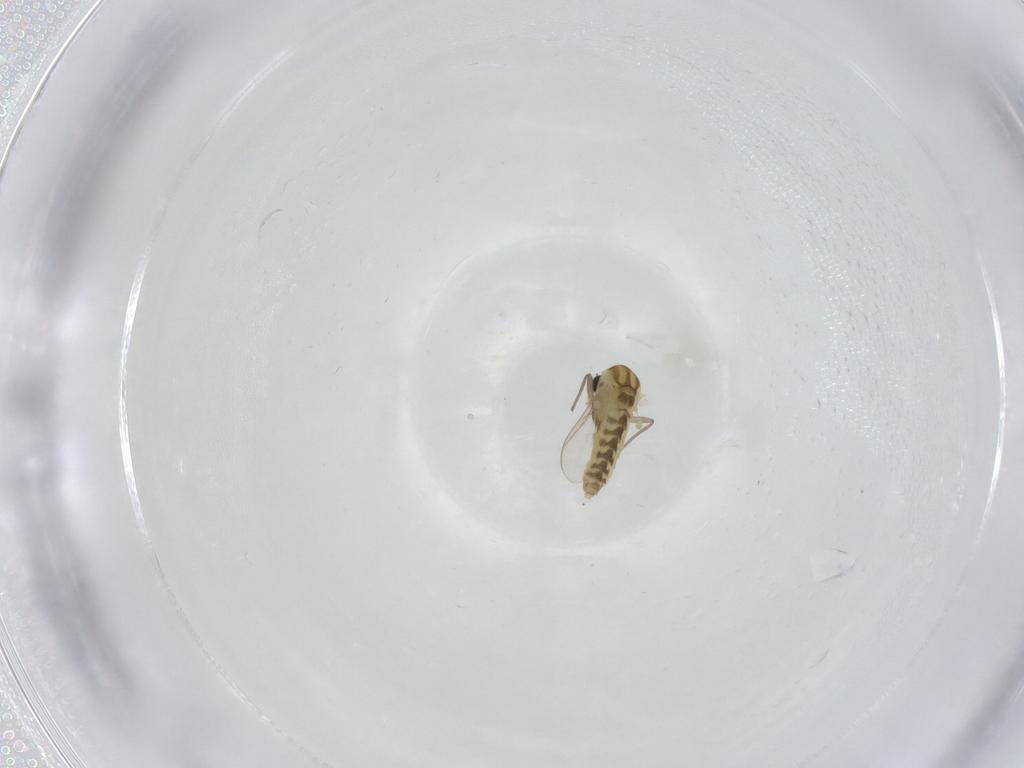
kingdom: Animalia
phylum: Arthropoda
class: Insecta
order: Diptera
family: Chironomidae
